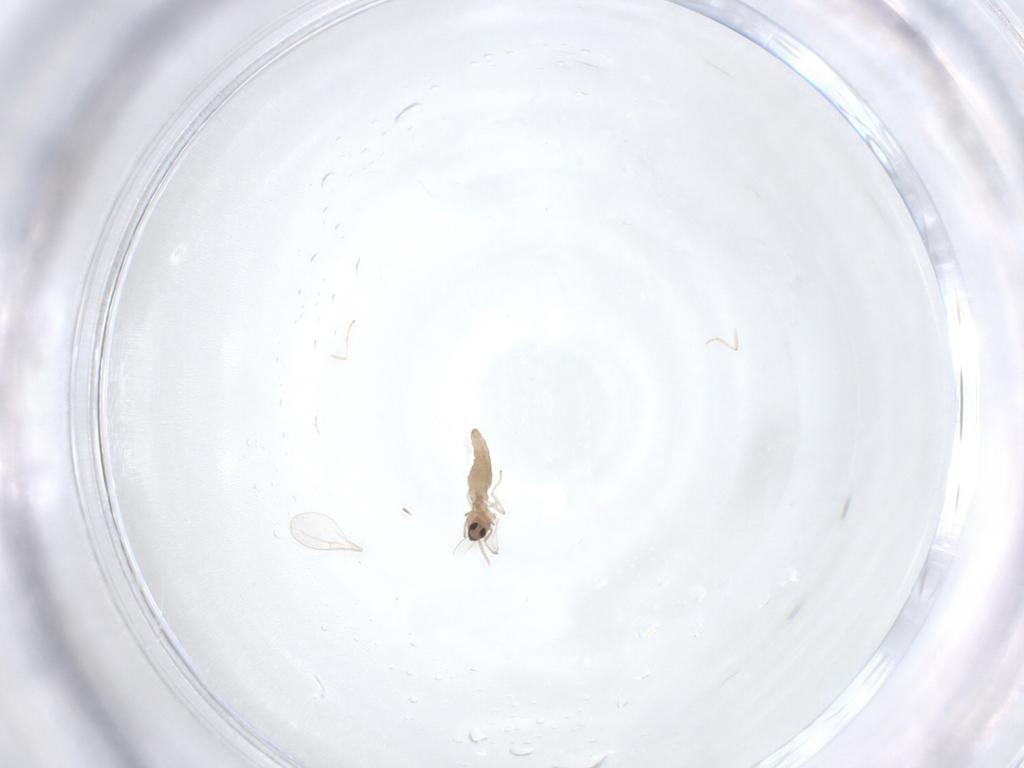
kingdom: Animalia
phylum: Arthropoda
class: Insecta
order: Diptera
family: Cecidomyiidae
